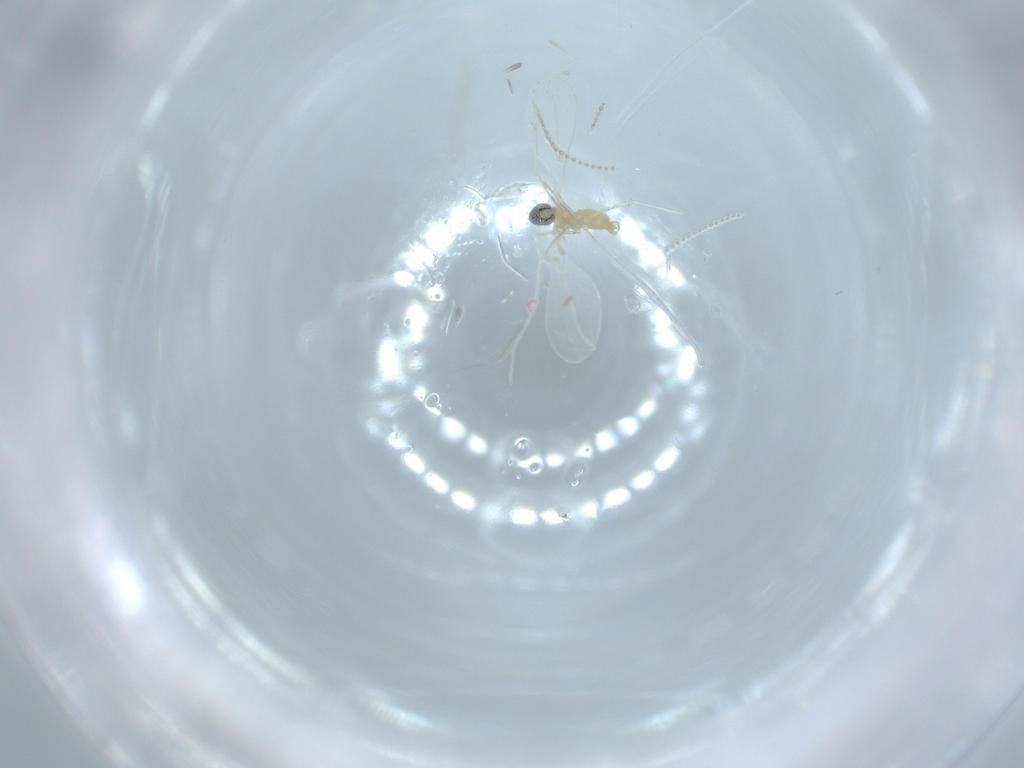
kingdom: Animalia
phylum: Arthropoda
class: Insecta
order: Diptera
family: Cecidomyiidae
